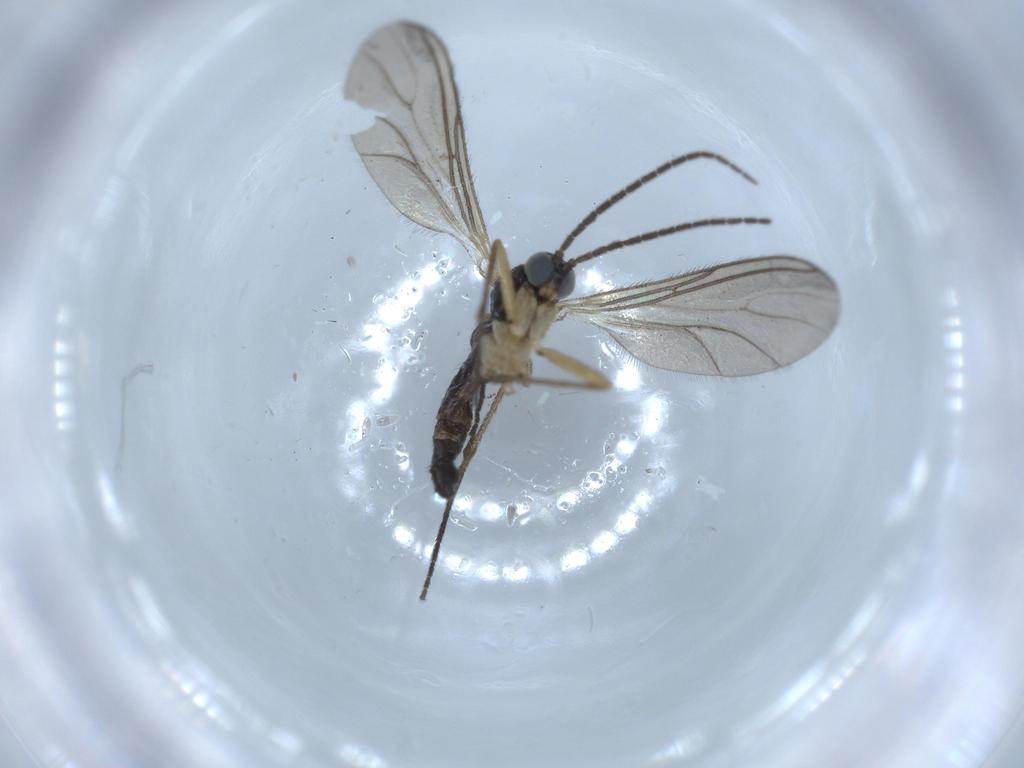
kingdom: Animalia
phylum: Arthropoda
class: Insecta
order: Diptera
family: Sciaridae
